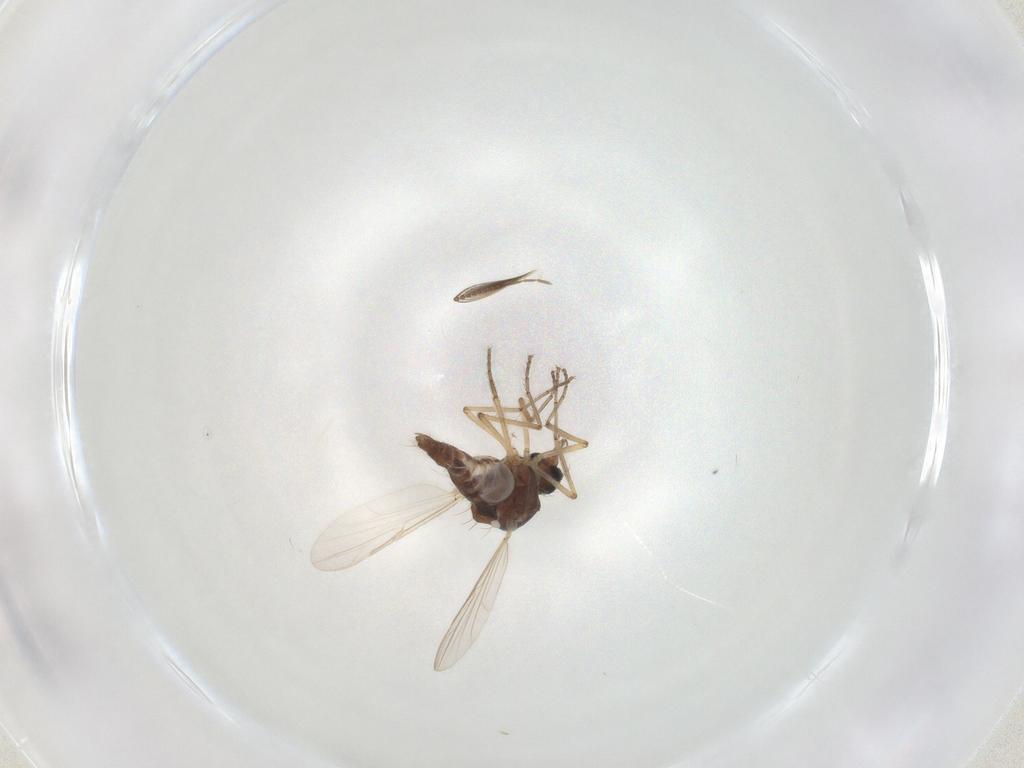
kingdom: Animalia
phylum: Arthropoda
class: Insecta
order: Diptera
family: Ceratopogonidae
